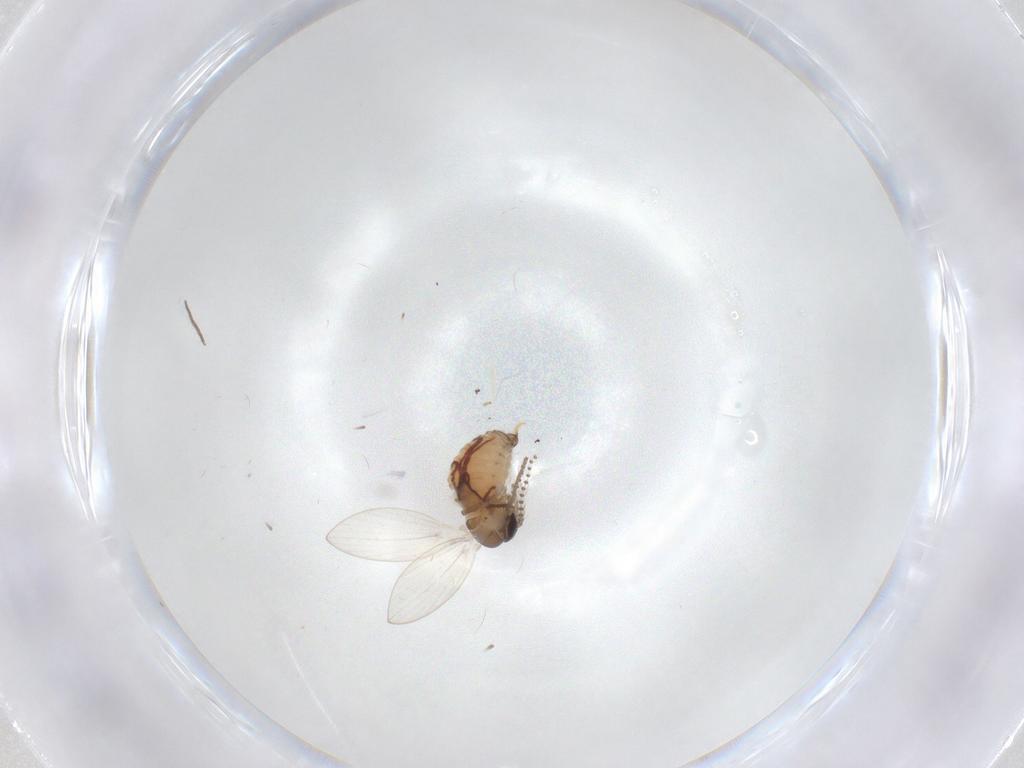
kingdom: Animalia
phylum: Arthropoda
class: Insecta
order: Diptera
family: Psychodidae
